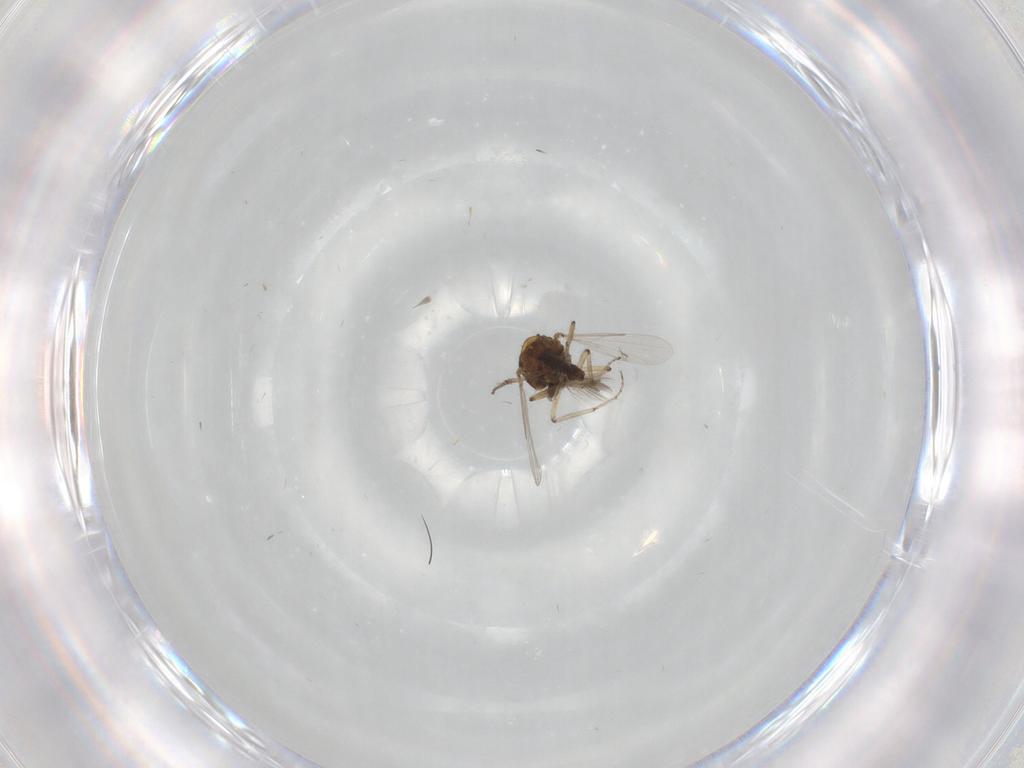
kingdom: Animalia
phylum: Arthropoda
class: Insecta
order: Diptera
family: Ceratopogonidae
